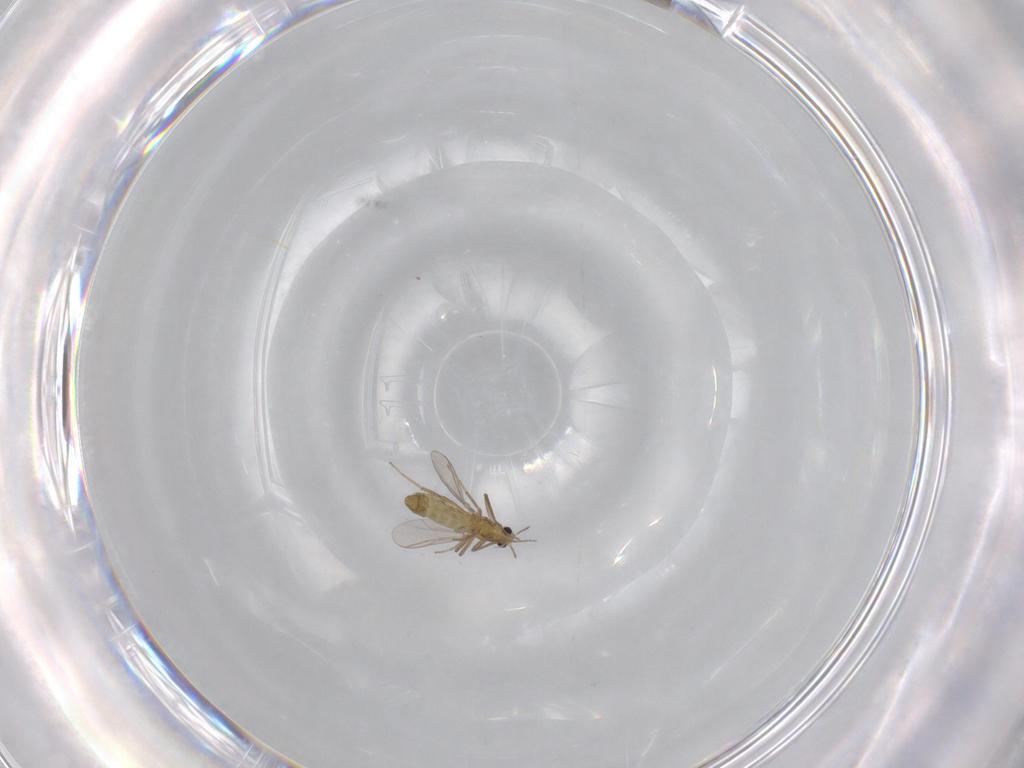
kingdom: Animalia
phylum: Arthropoda
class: Insecta
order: Diptera
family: Chironomidae
